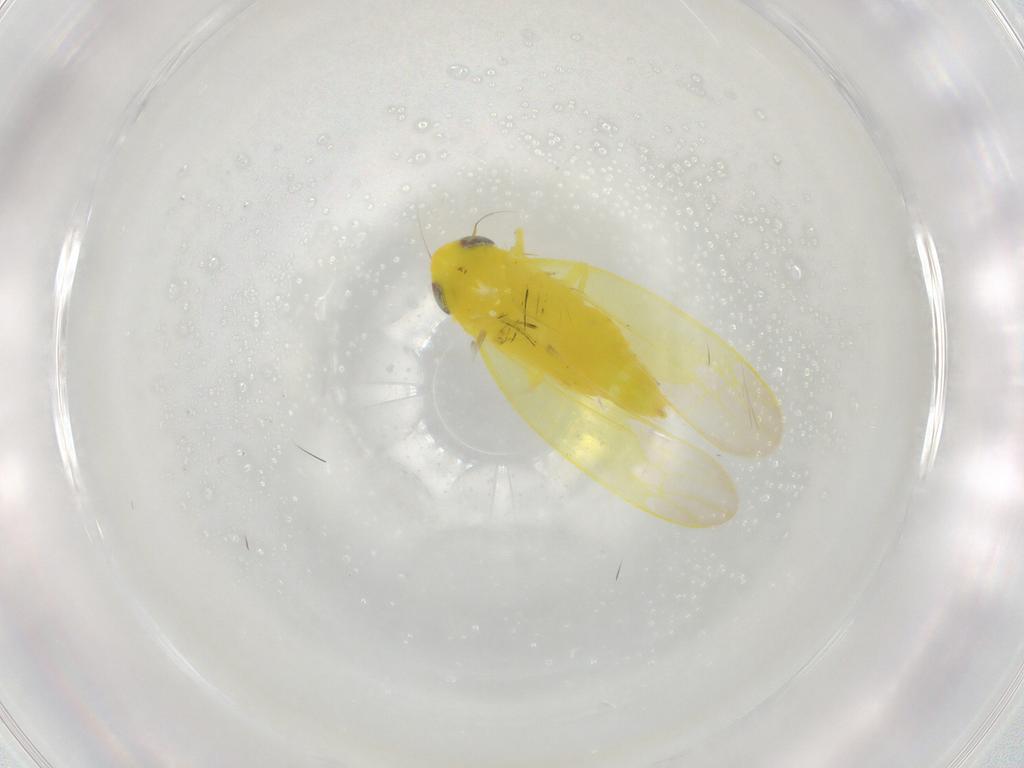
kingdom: Animalia
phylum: Arthropoda
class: Insecta
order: Hemiptera
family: Cicadellidae
